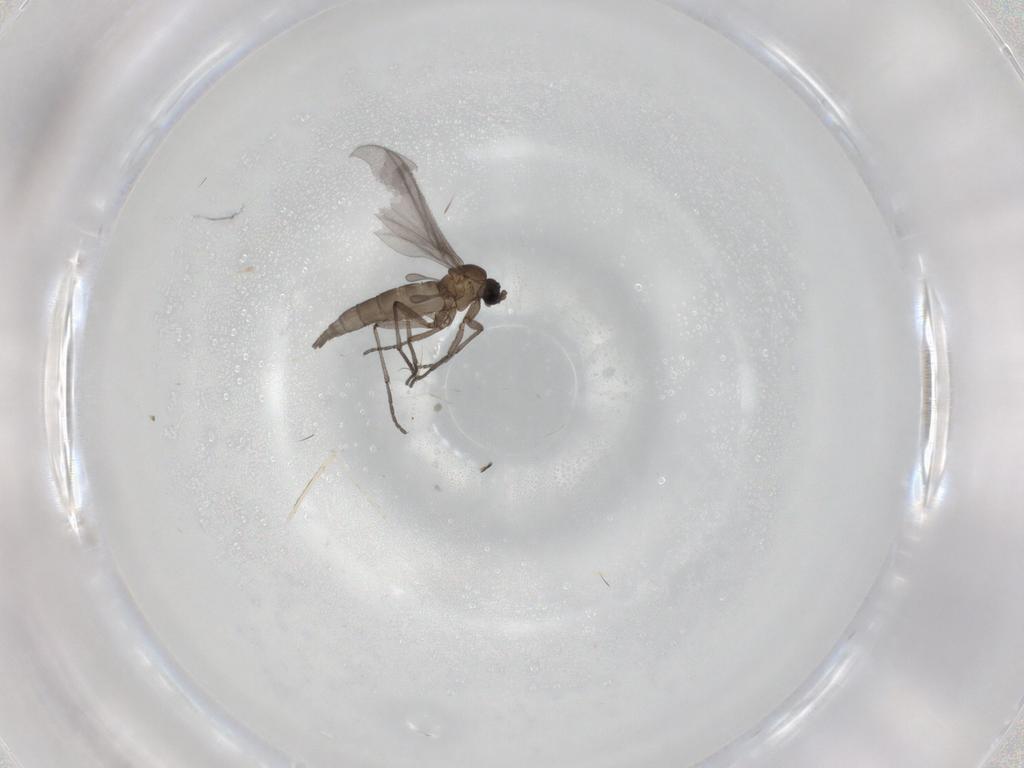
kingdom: Animalia
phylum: Arthropoda
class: Insecta
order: Diptera
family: Sciaridae
